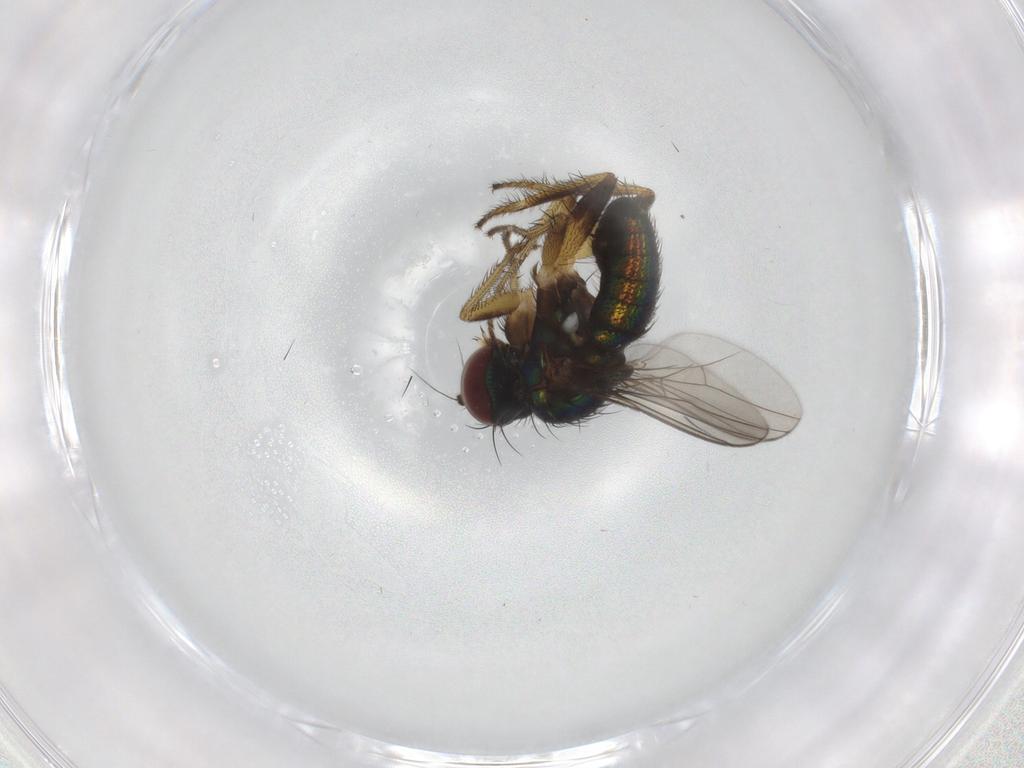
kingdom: Animalia
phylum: Arthropoda
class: Insecta
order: Diptera
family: Dolichopodidae
